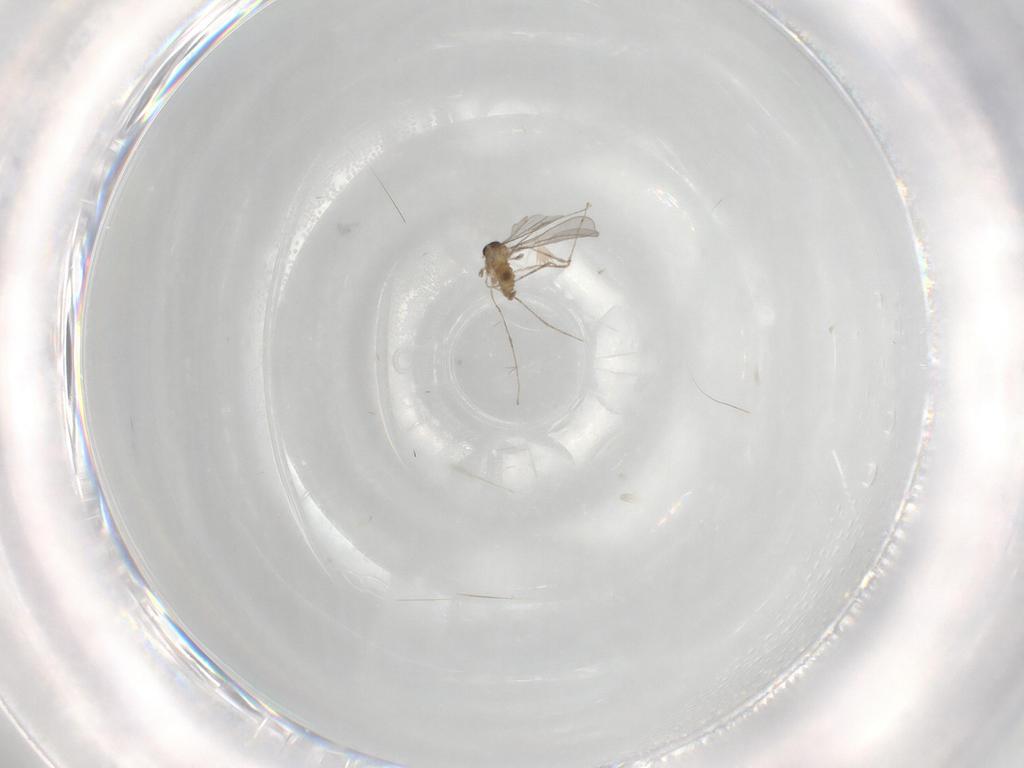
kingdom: Animalia
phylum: Arthropoda
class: Insecta
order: Diptera
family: Cecidomyiidae
